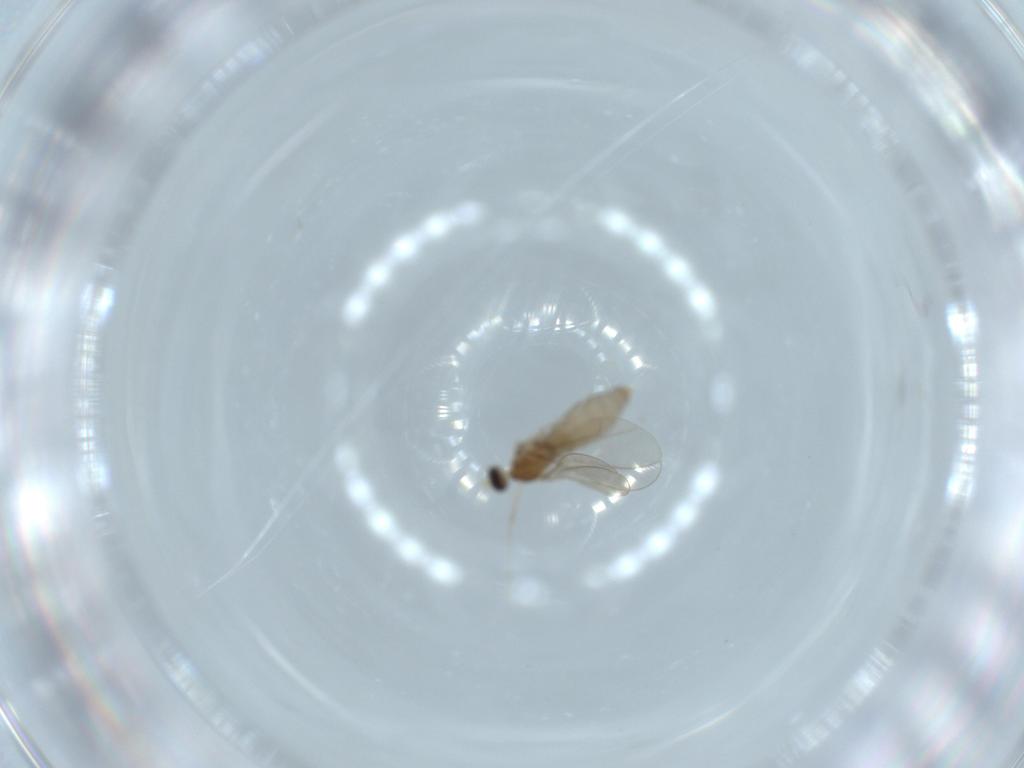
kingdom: Animalia
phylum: Arthropoda
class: Insecta
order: Diptera
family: Cecidomyiidae
